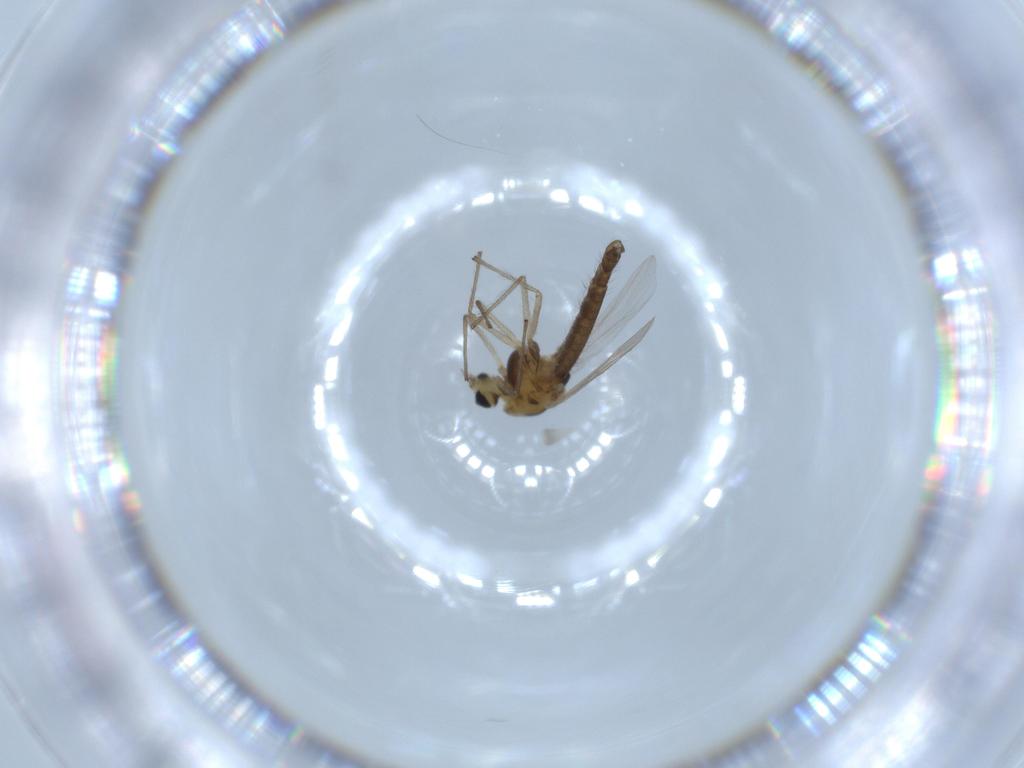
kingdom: Animalia
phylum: Arthropoda
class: Insecta
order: Diptera
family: Chironomidae
